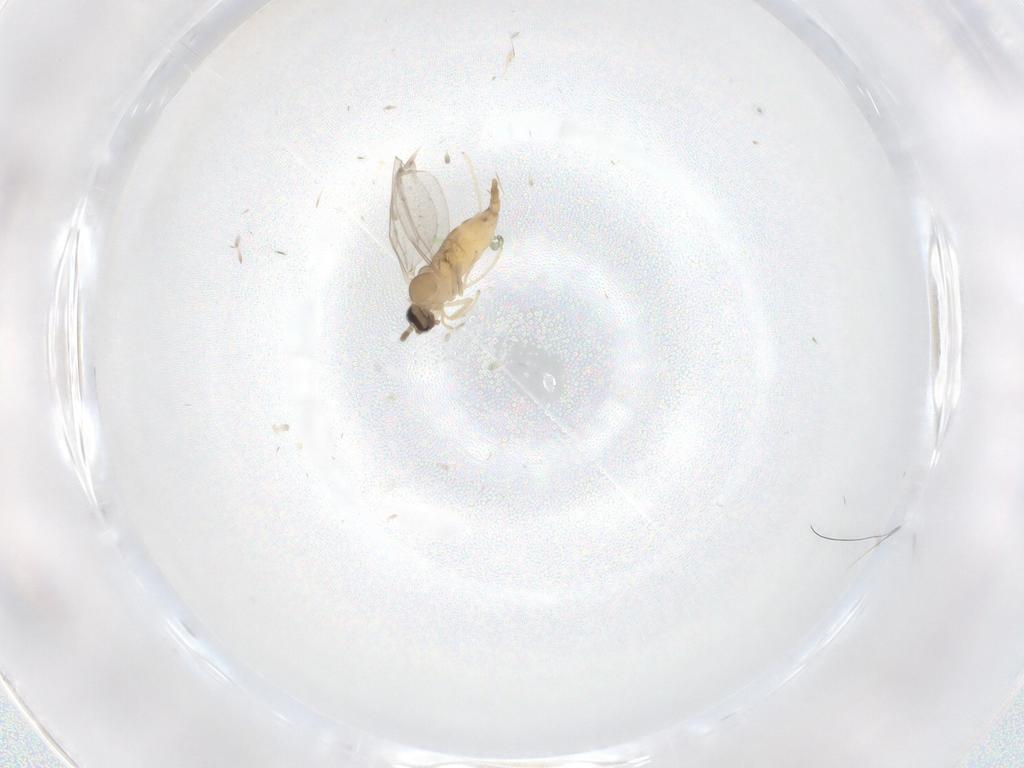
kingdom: Animalia
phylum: Arthropoda
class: Insecta
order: Diptera
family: Cecidomyiidae
